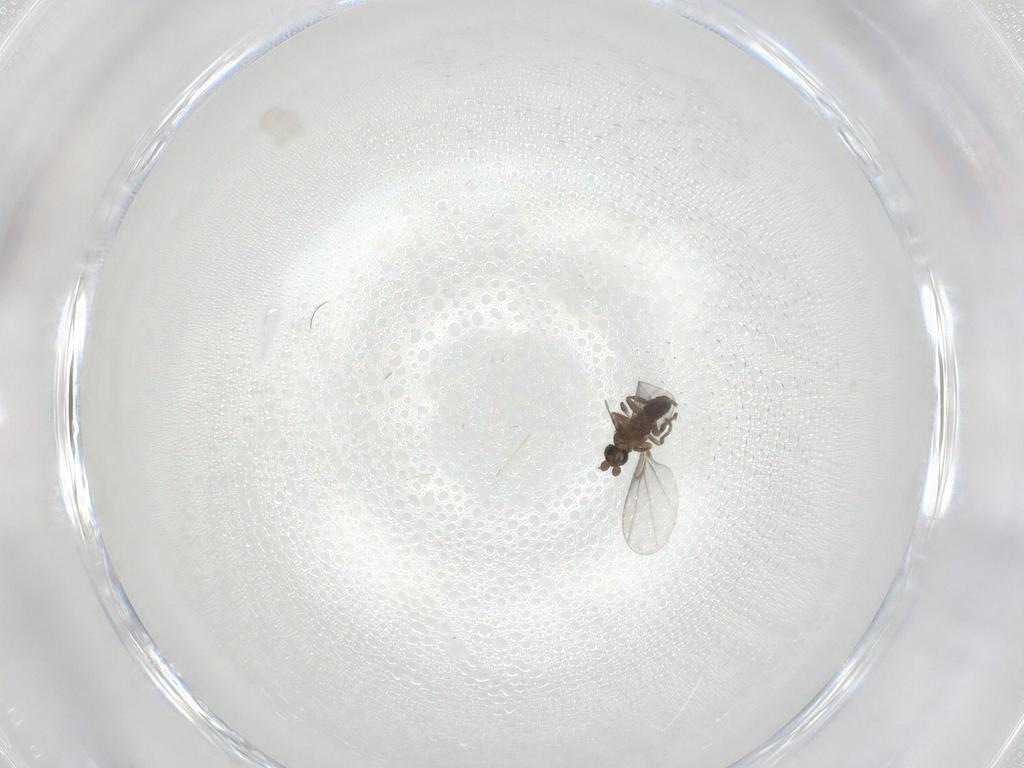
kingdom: Animalia
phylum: Arthropoda
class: Insecta
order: Diptera
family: Phoridae
